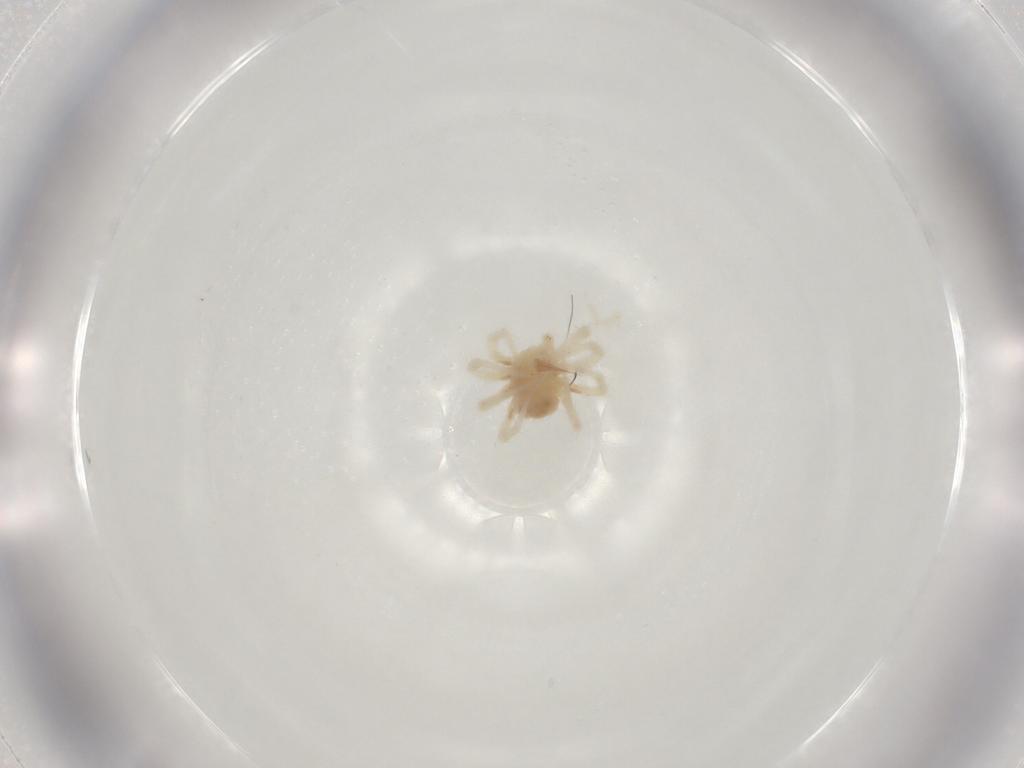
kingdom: Animalia
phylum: Arthropoda
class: Arachnida
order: Trombidiformes
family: Anystidae
